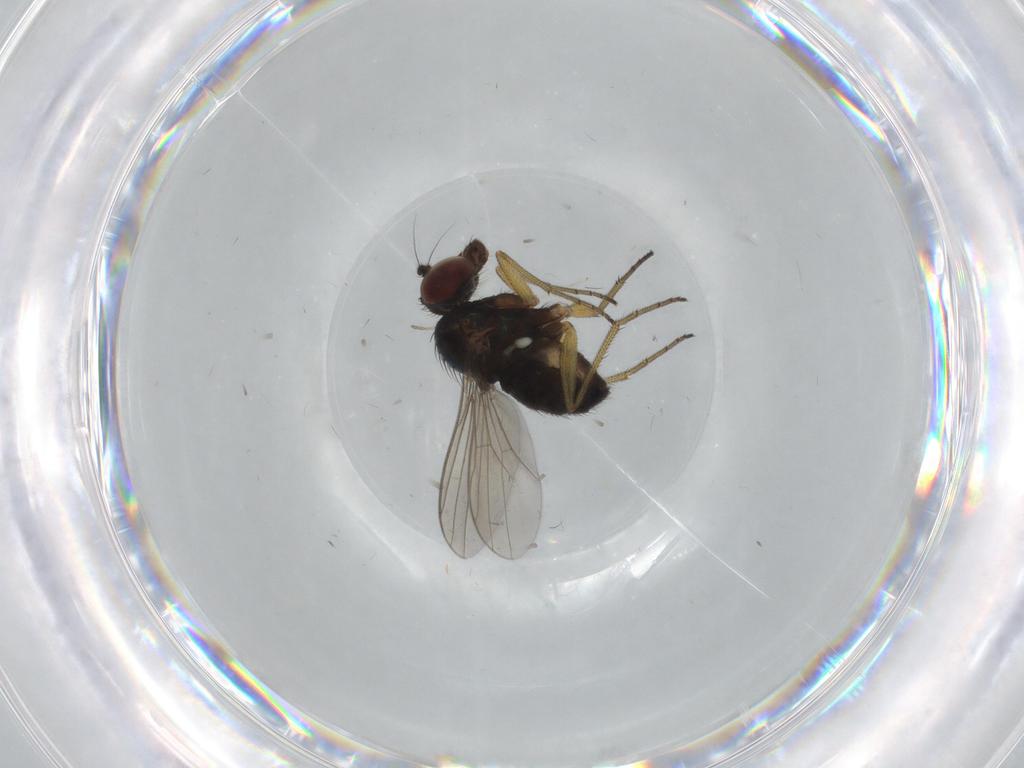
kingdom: Animalia
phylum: Arthropoda
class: Insecta
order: Diptera
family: Dolichopodidae
